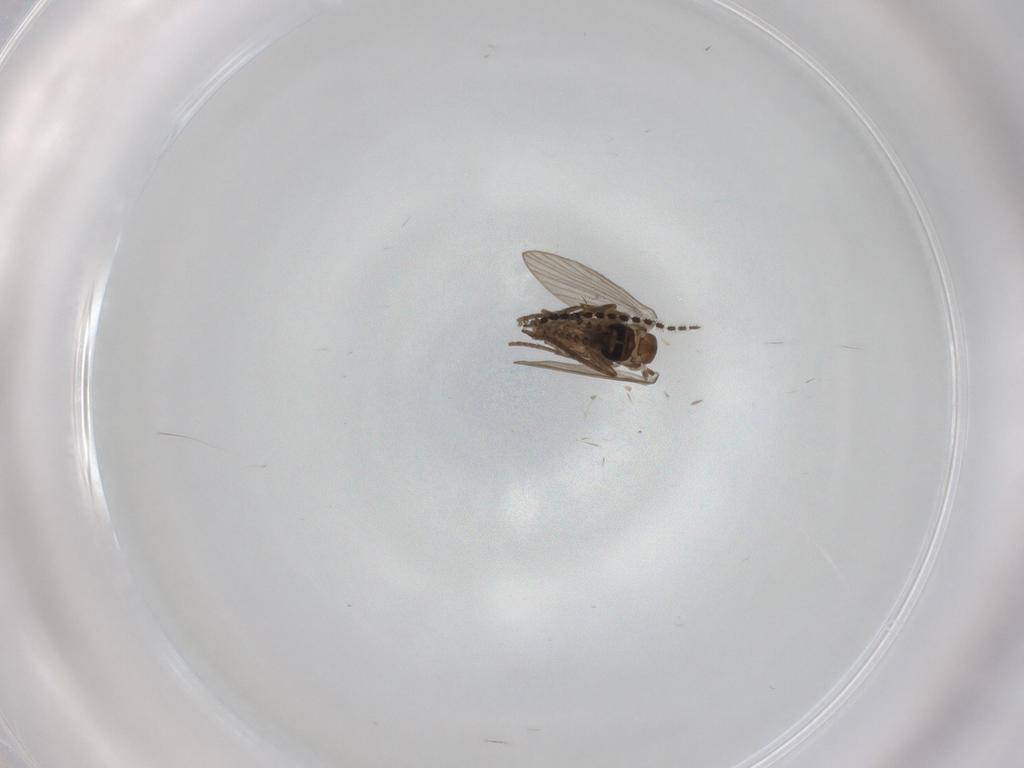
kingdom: Animalia
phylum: Arthropoda
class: Insecta
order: Diptera
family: Chironomidae
